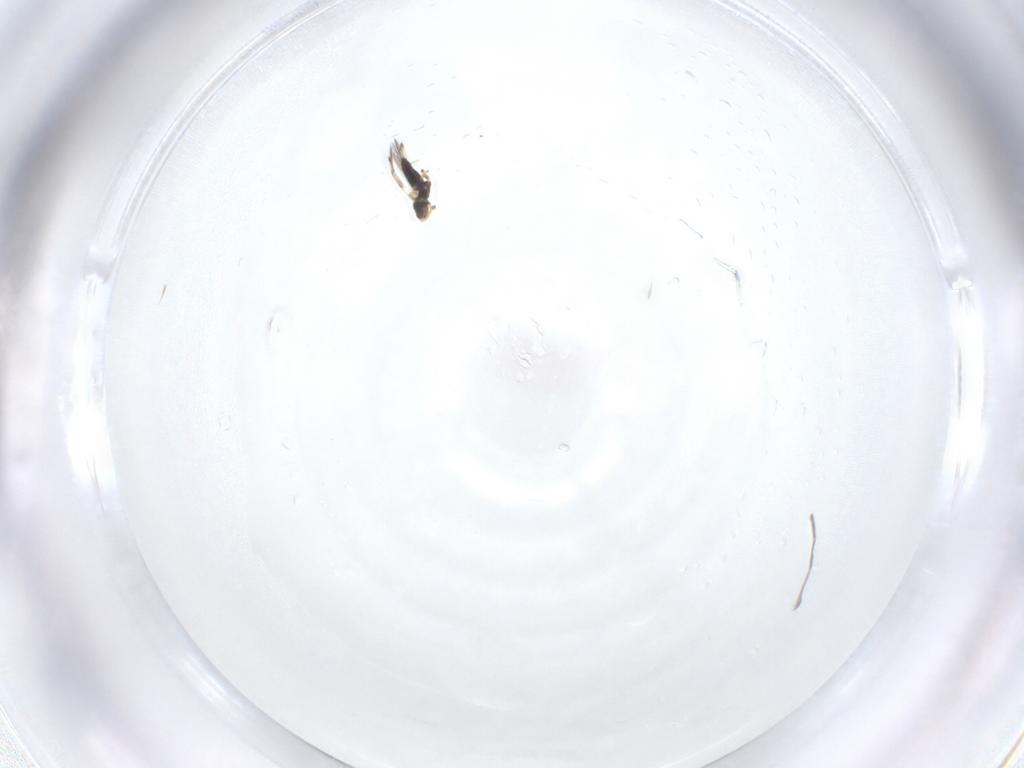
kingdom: Animalia
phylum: Arthropoda
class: Insecta
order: Thysanoptera
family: Thripidae
